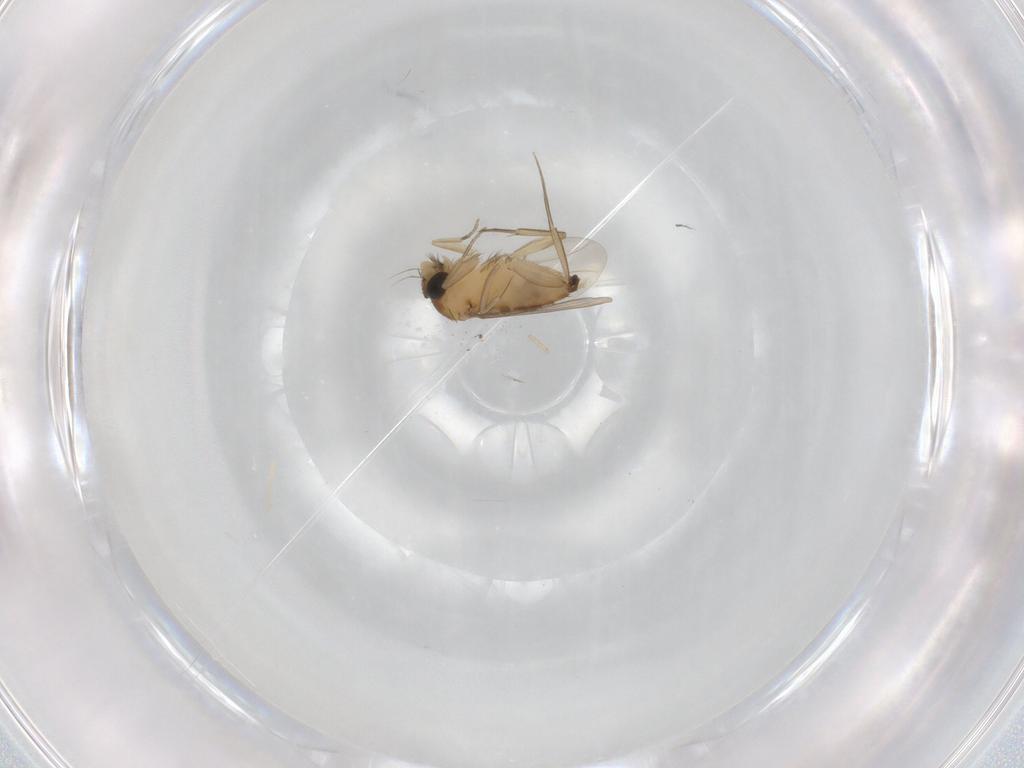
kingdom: Animalia
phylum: Arthropoda
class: Insecta
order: Diptera
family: Phoridae
